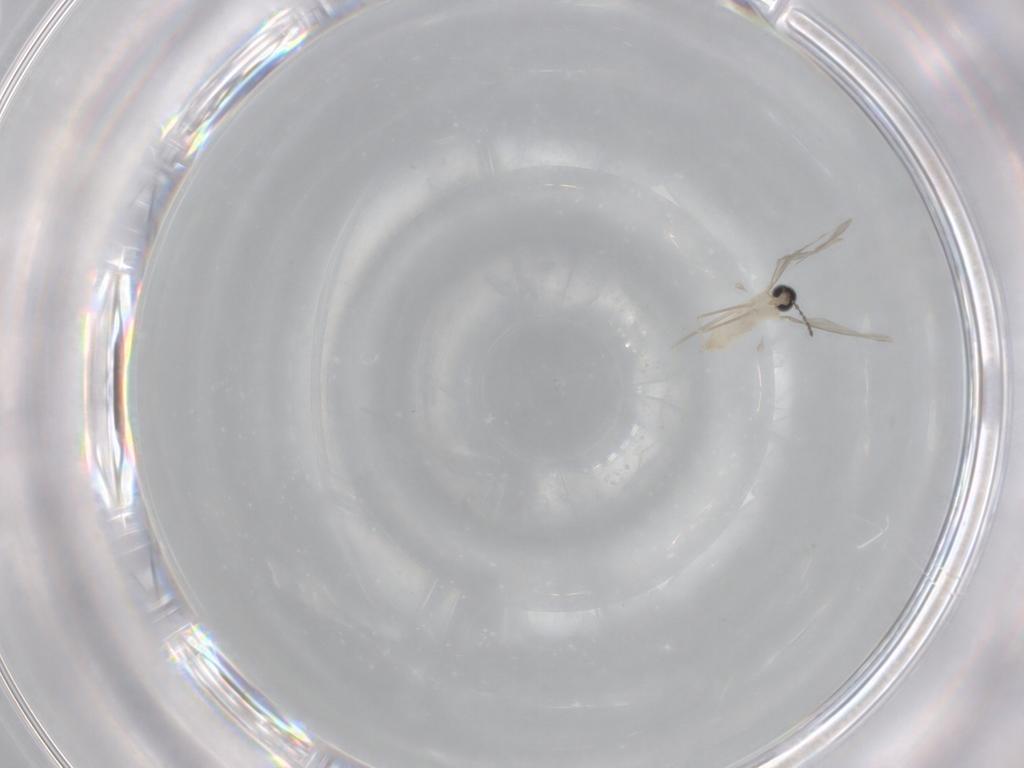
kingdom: Animalia
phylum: Arthropoda
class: Insecta
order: Diptera
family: Cecidomyiidae
